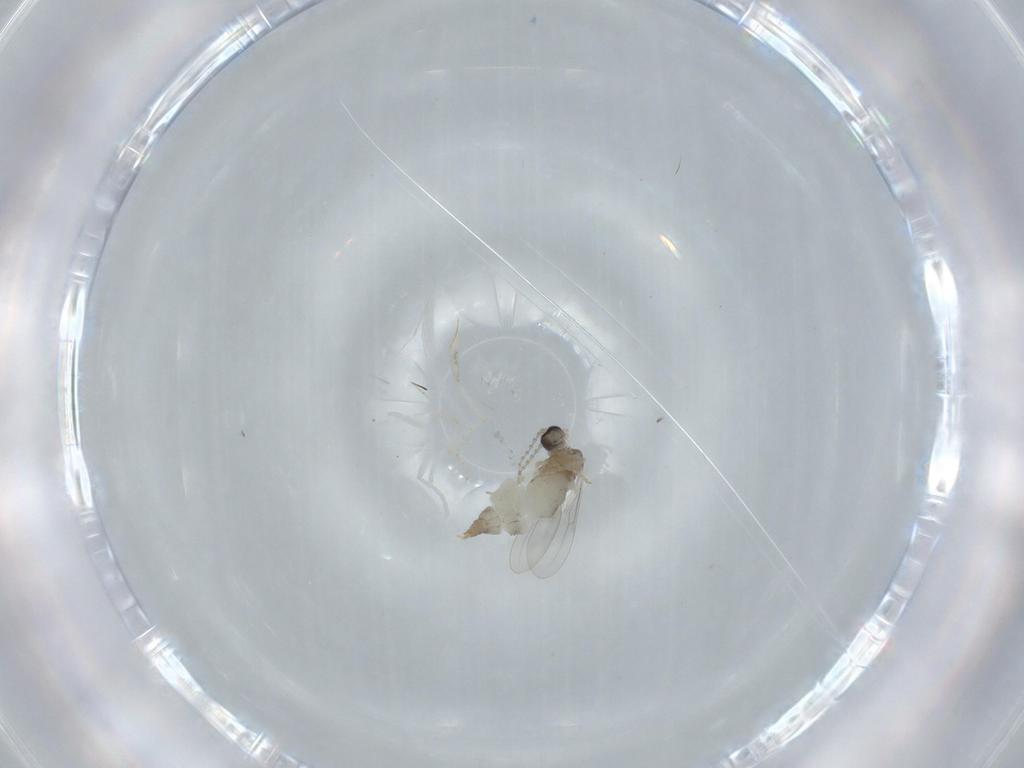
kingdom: Animalia
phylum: Arthropoda
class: Insecta
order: Diptera
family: Cecidomyiidae
